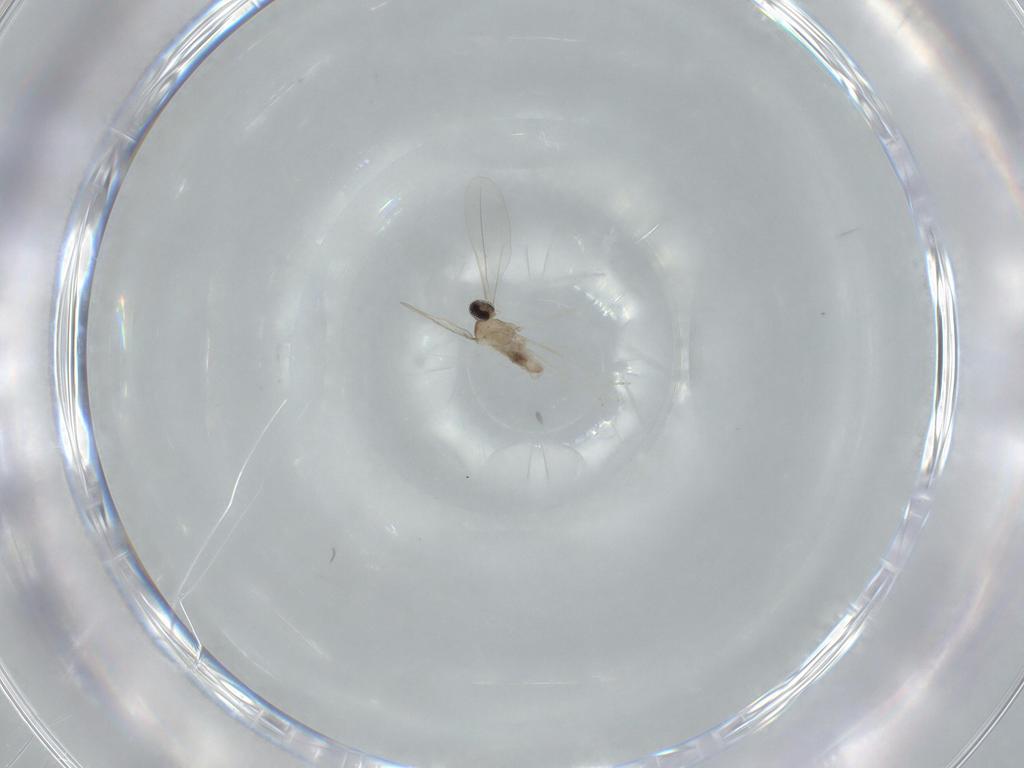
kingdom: Animalia
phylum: Arthropoda
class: Insecta
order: Diptera
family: Cecidomyiidae
